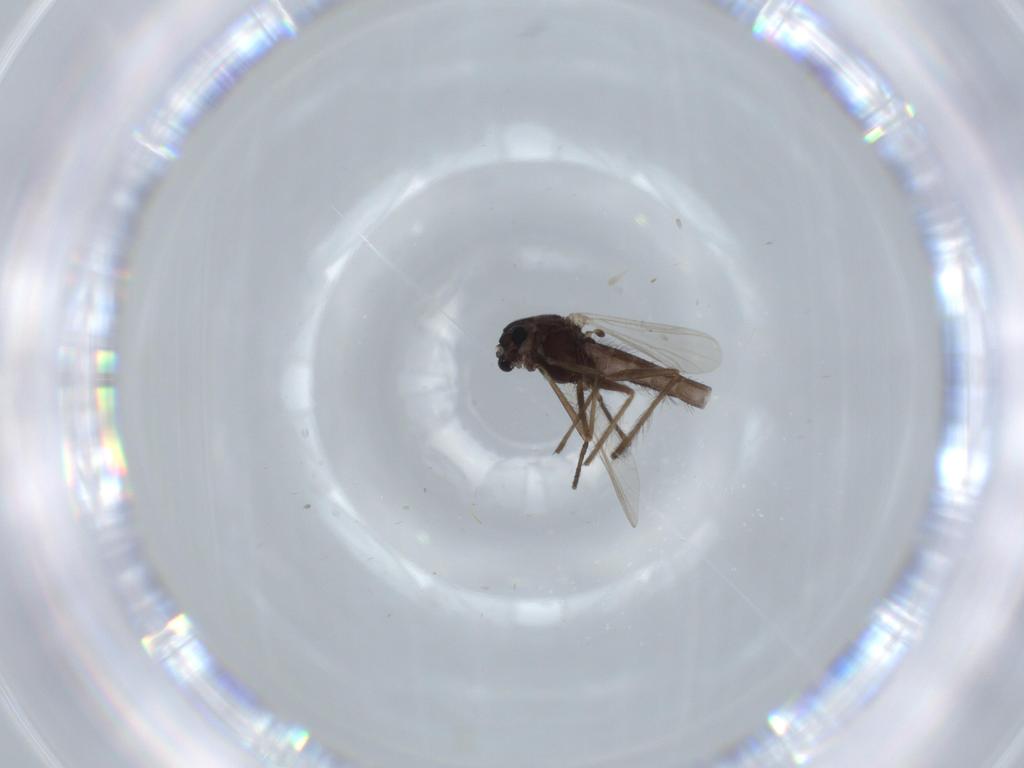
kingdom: Animalia
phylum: Arthropoda
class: Insecta
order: Diptera
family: Chironomidae
